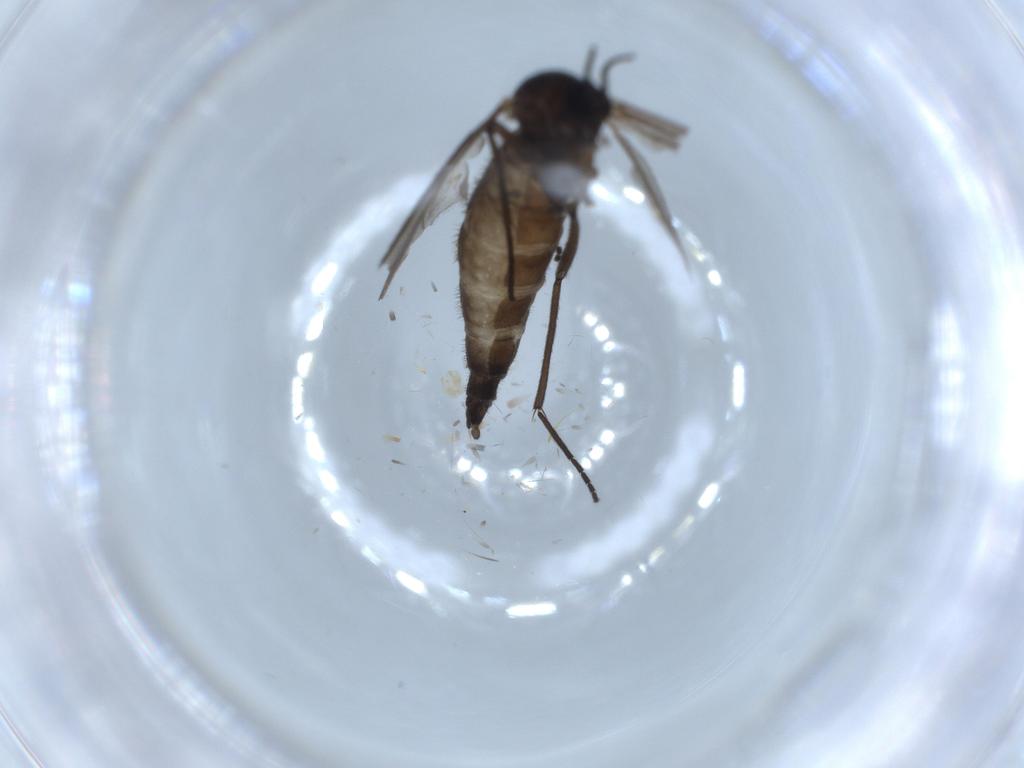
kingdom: Animalia
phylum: Arthropoda
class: Insecta
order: Diptera
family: Sciaridae
